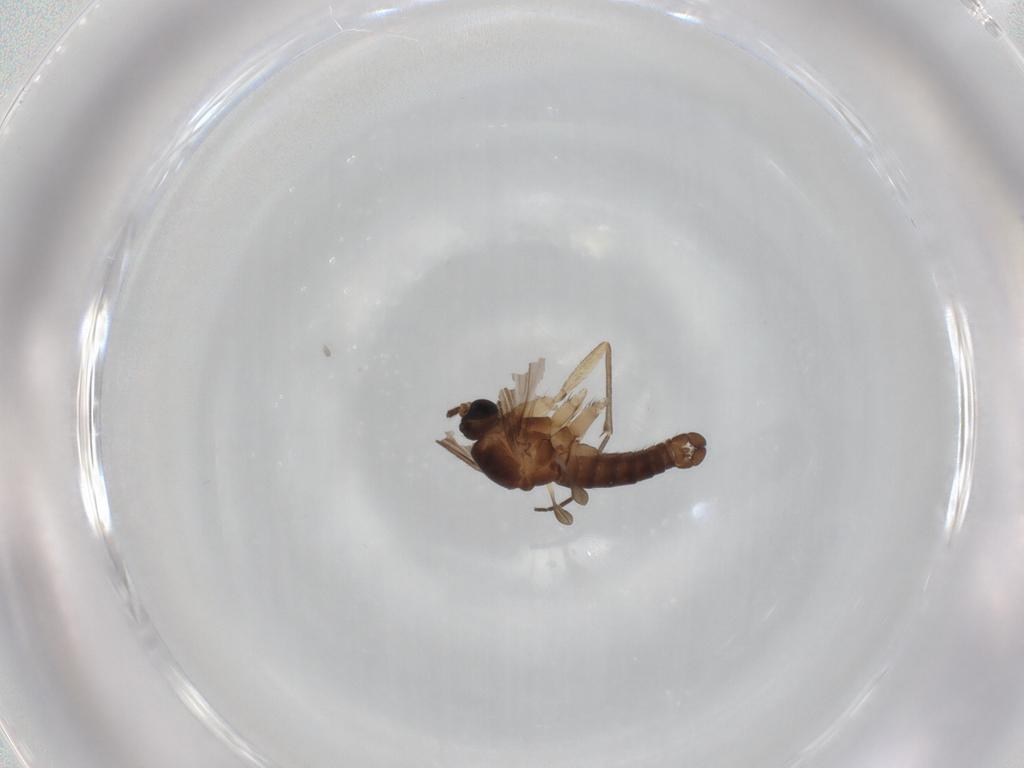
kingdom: Animalia
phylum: Arthropoda
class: Insecta
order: Diptera
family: Sciaridae
